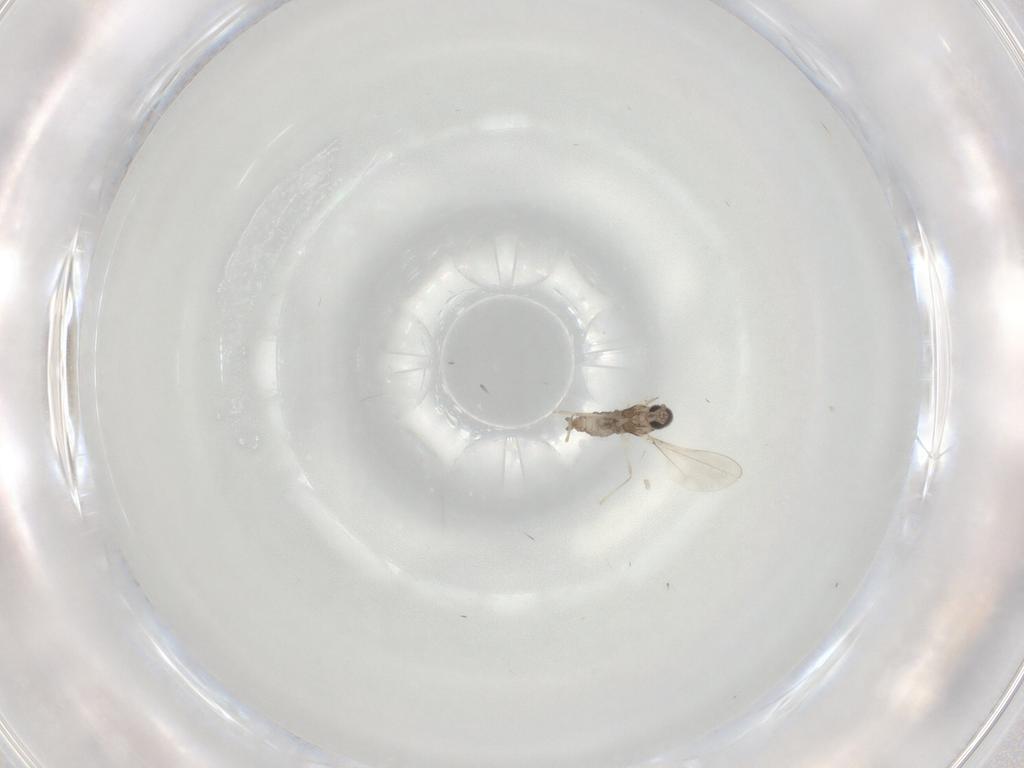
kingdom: Animalia
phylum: Arthropoda
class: Insecta
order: Diptera
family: Cecidomyiidae
